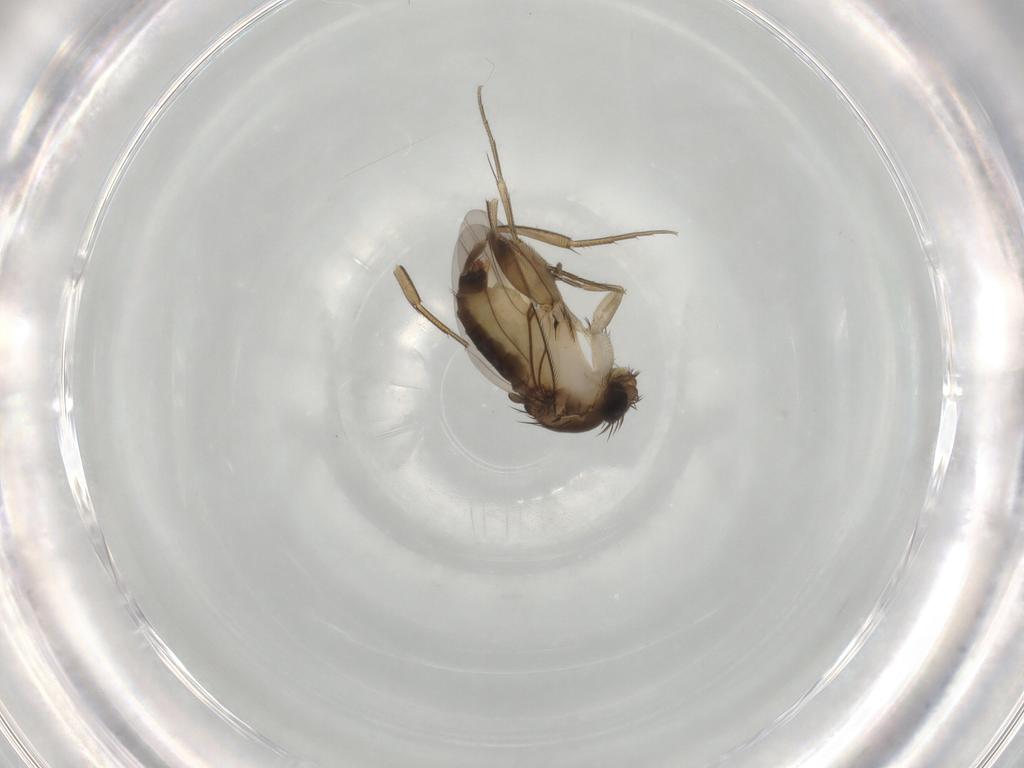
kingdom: Animalia
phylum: Arthropoda
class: Insecta
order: Diptera
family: Phoridae
